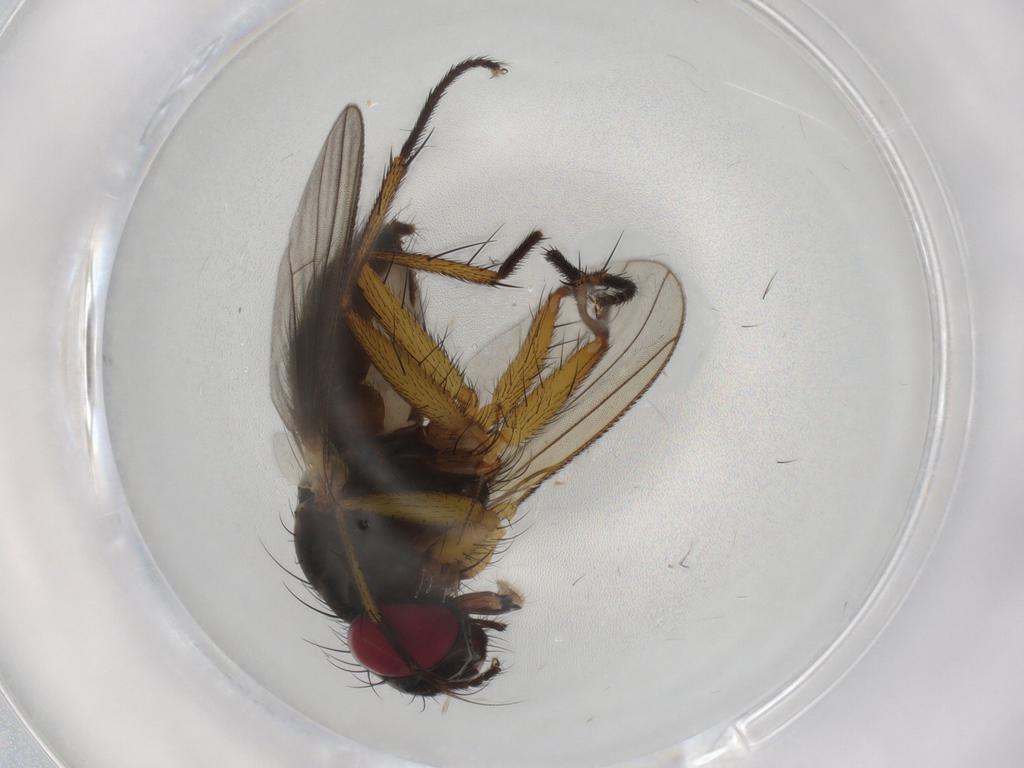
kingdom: Animalia
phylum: Arthropoda
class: Insecta
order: Diptera
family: Muscidae
